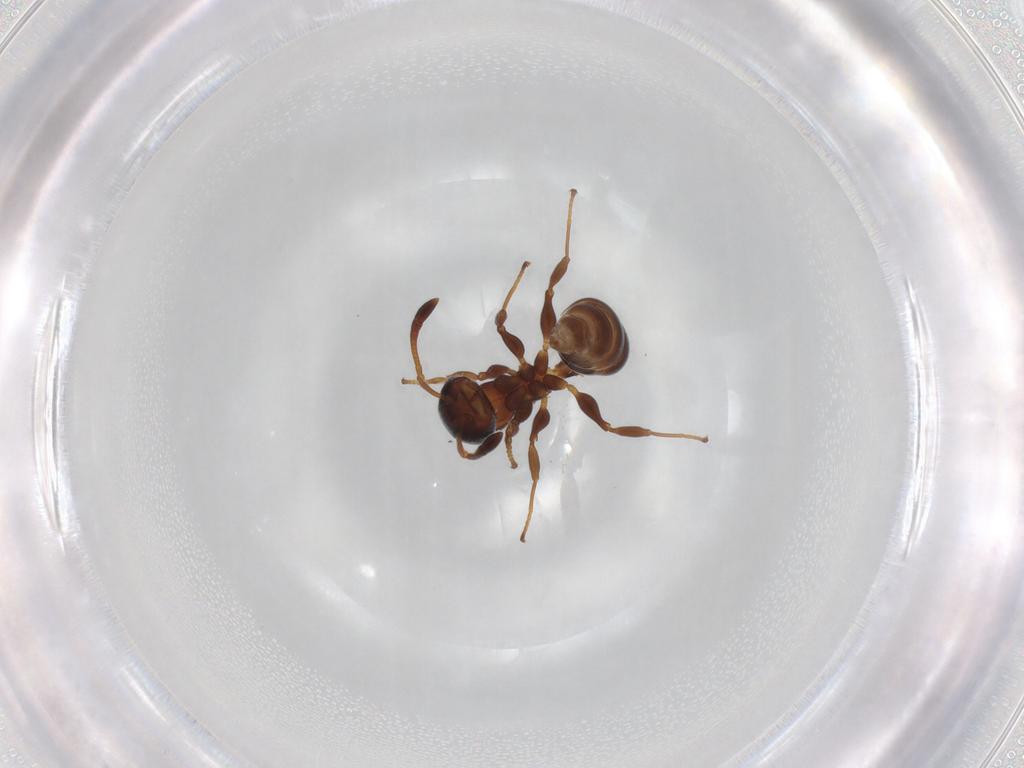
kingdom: Animalia
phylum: Arthropoda
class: Insecta
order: Hymenoptera
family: Formicidae
